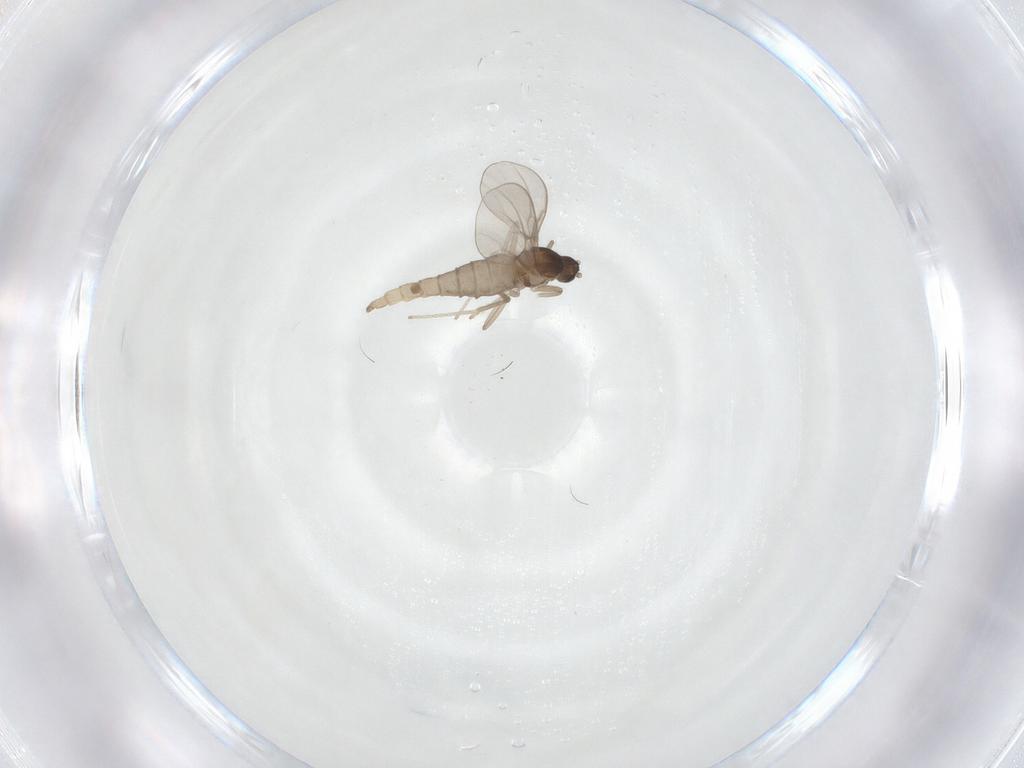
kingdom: Animalia
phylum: Arthropoda
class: Insecta
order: Diptera
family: Cecidomyiidae
